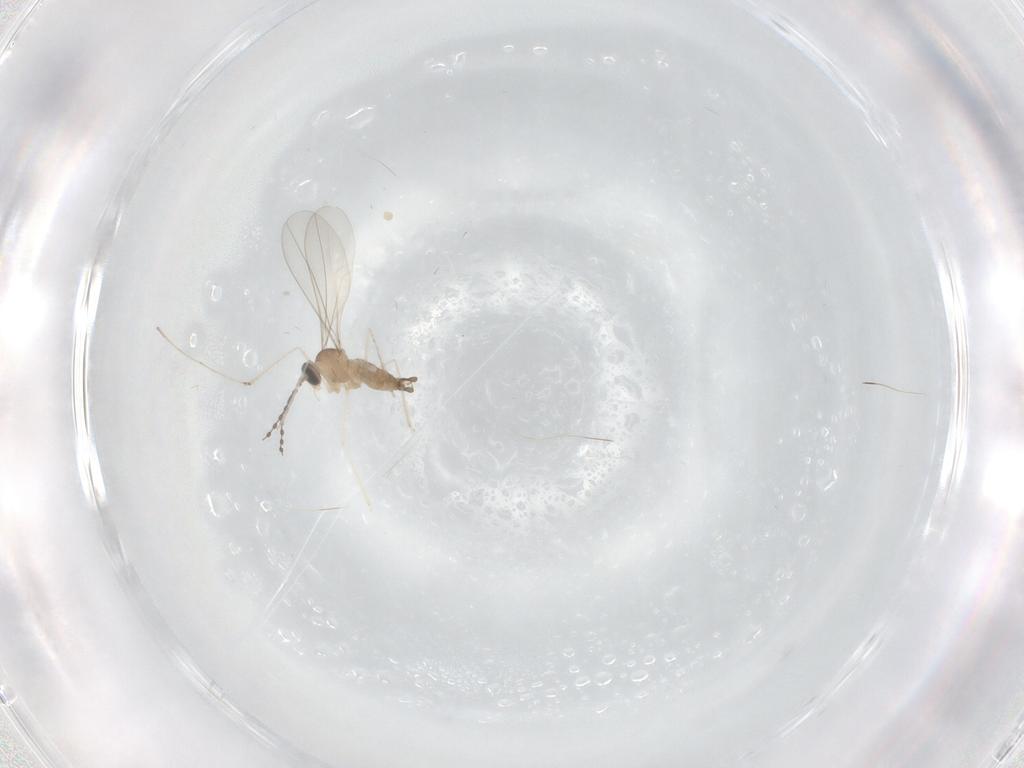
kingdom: Animalia
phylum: Arthropoda
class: Insecta
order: Diptera
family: Cecidomyiidae
